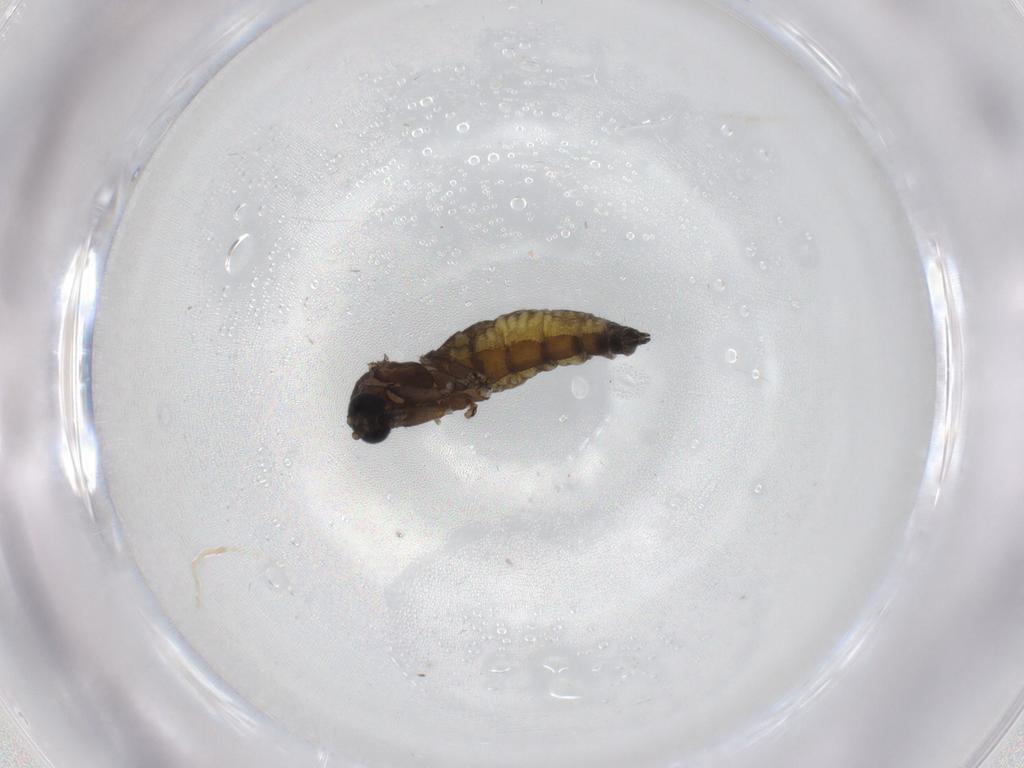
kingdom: Animalia
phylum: Arthropoda
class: Insecta
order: Diptera
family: Sciaridae
